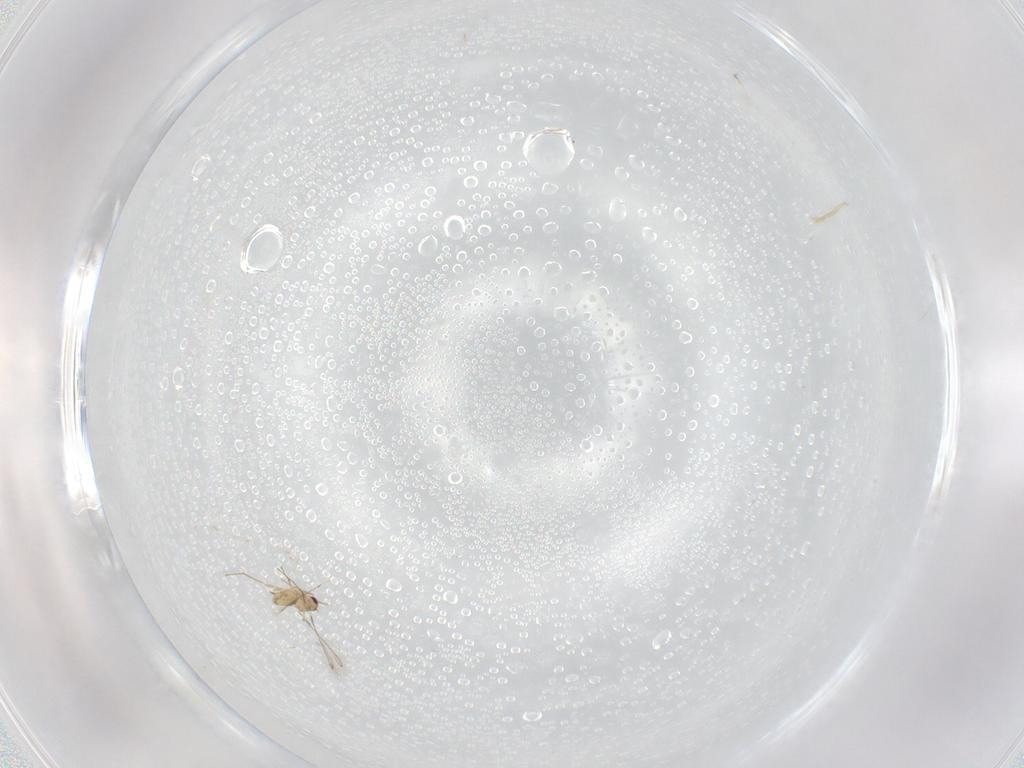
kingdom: Animalia
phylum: Arthropoda
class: Insecta
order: Hymenoptera
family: Mymaridae
